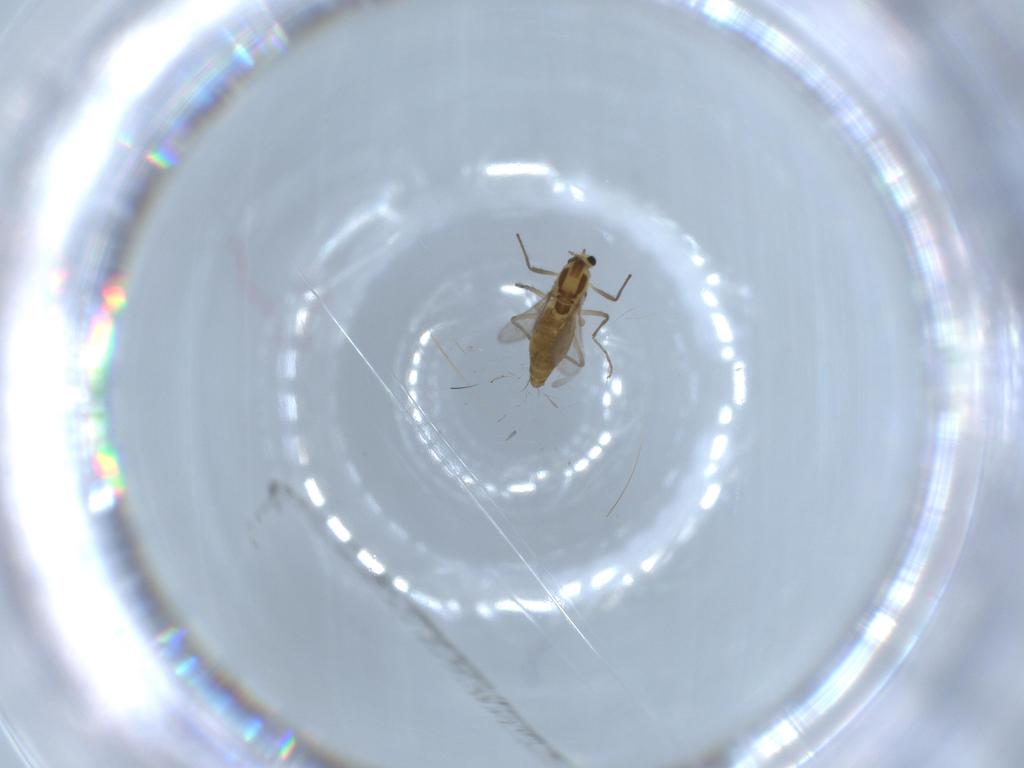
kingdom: Animalia
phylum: Arthropoda
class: Insecta
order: Diptera
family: Chironomidae
